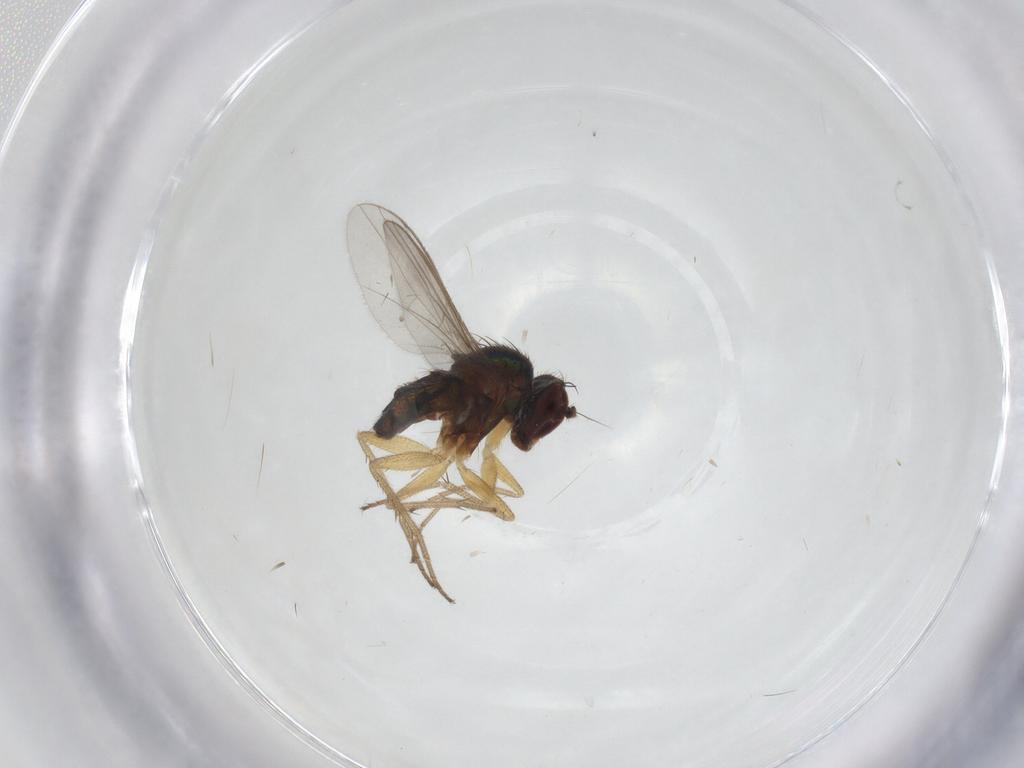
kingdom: Animalia
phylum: Arthropoda
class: Insecta
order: Diptera
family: Dolichopodidae
